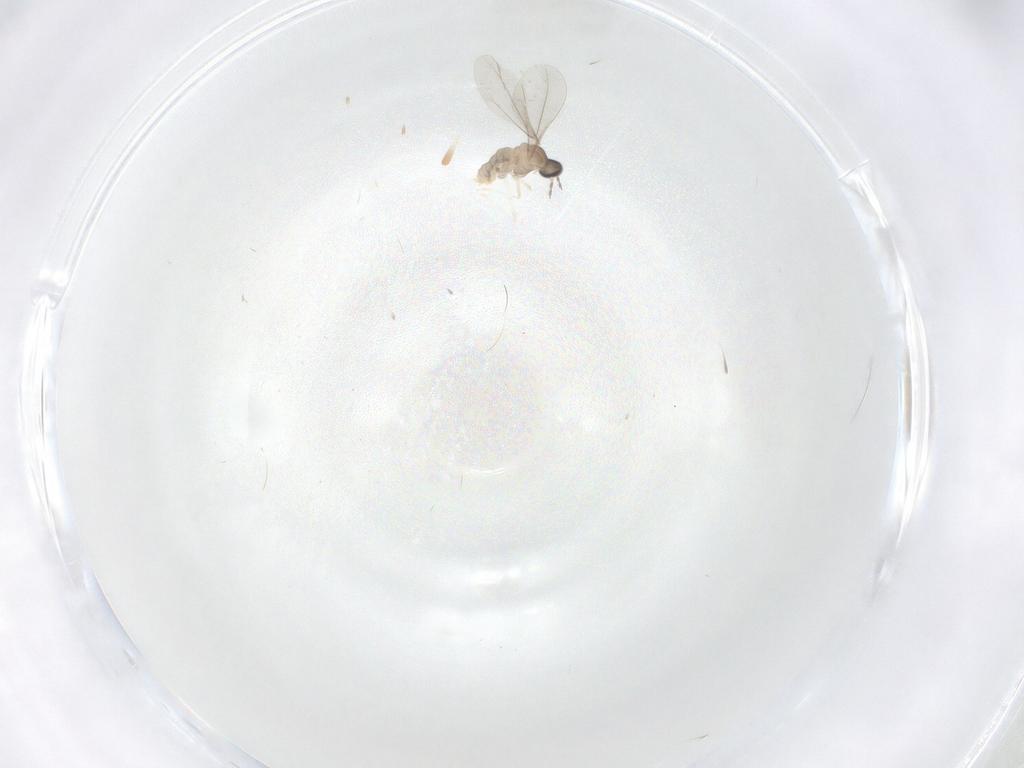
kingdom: Animalia
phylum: Arthropoda
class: Insecta
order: Diptera
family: Cecidomyiidae
